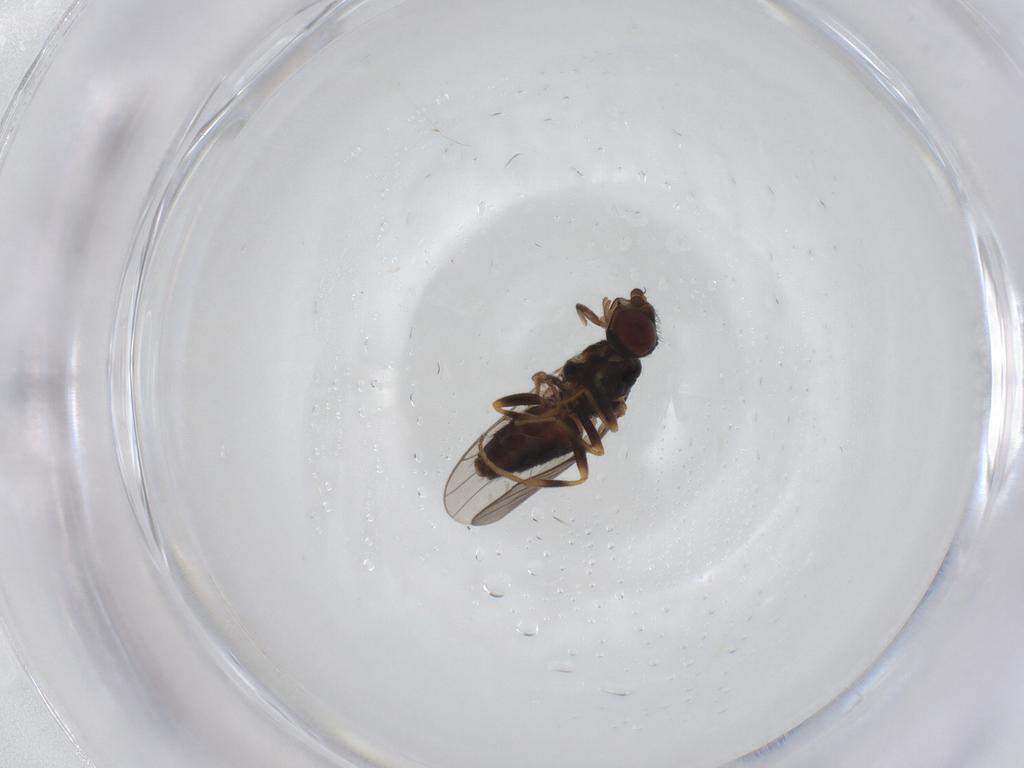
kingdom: Animalia
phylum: Arthropoda
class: Insecta
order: Diptera
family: Chloropidae
